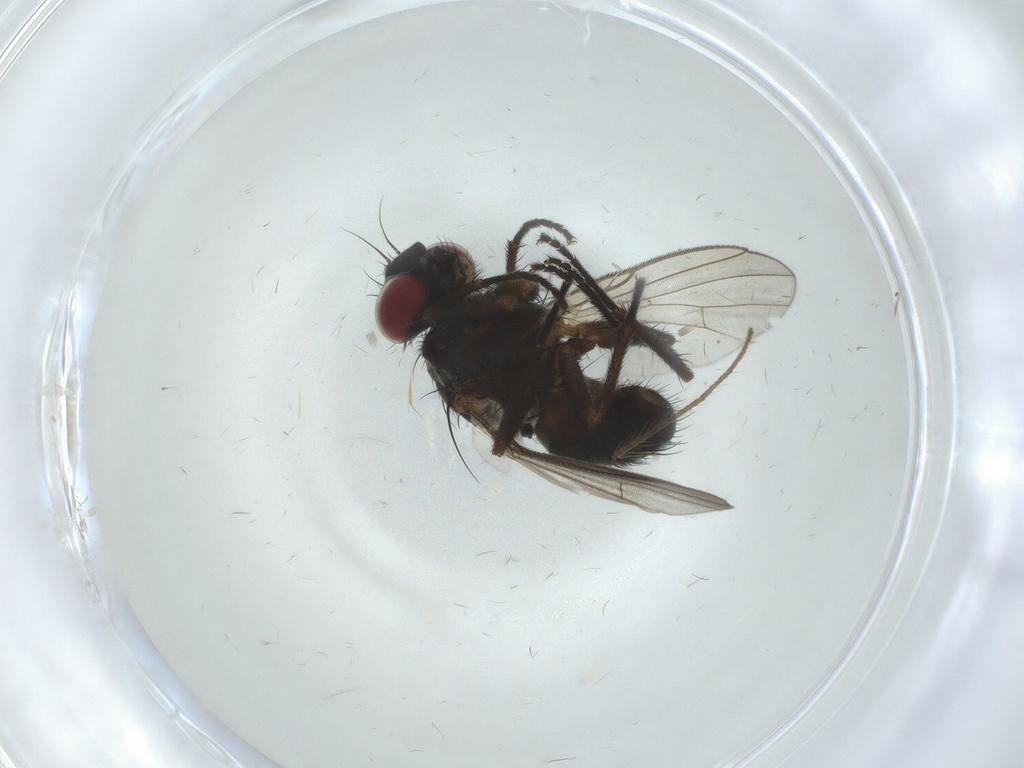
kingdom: Animalia
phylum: Arthropoda
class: Insecta
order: Diptera
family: Muscidae
